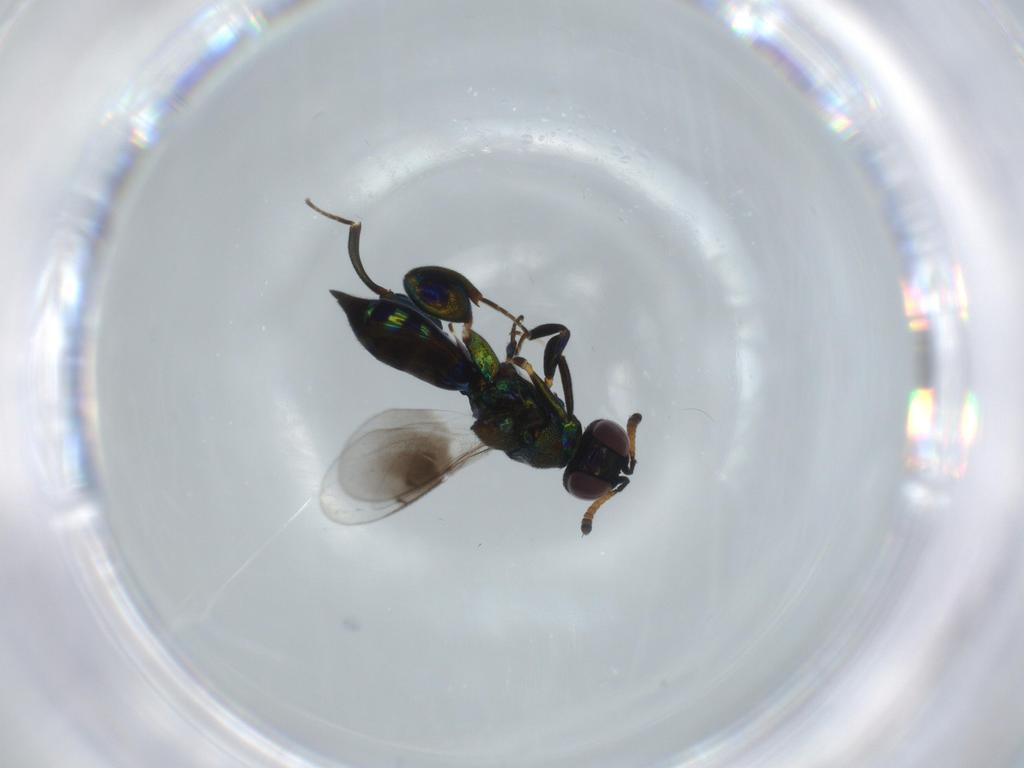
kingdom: Animalia
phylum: Arthropoda
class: Insecta
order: Hymenoptera
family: Pteromalidae
